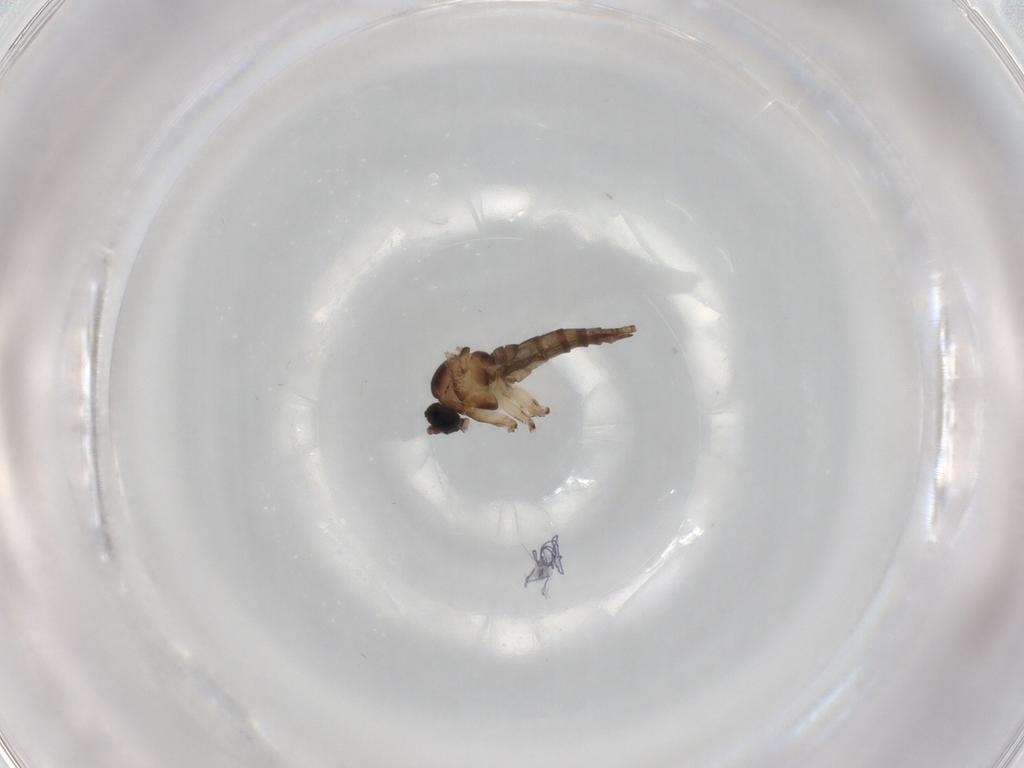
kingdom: Animalia
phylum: Arthropoda
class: Insecta
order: Diptera
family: Sciaridae
